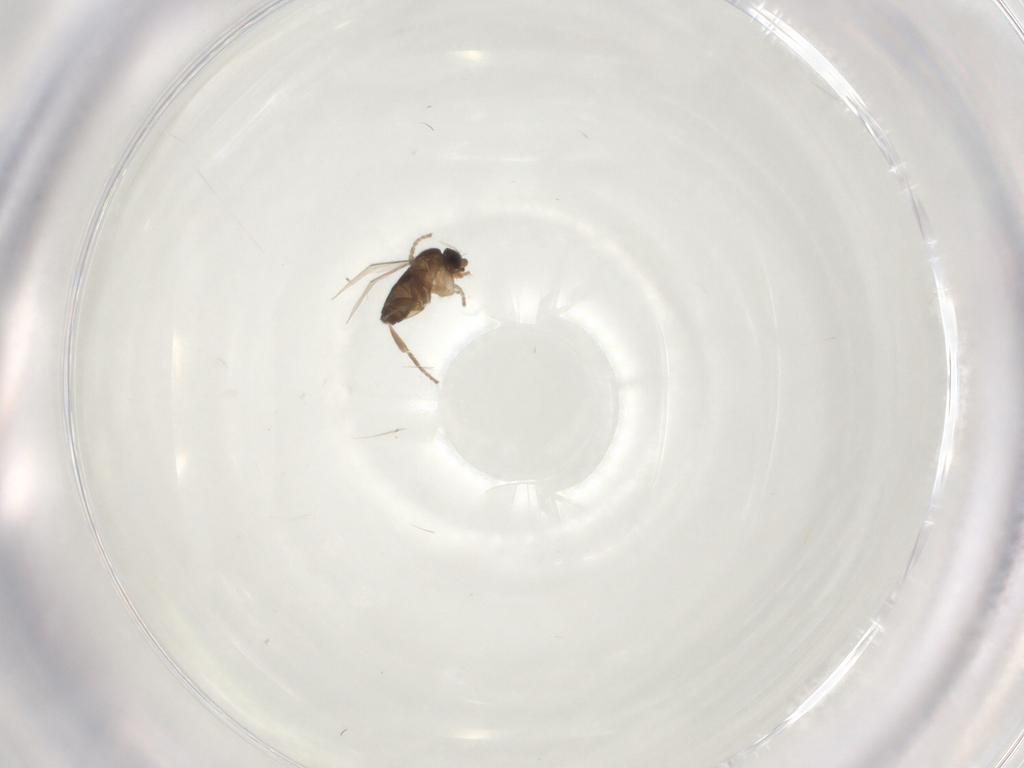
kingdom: Animalia
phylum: Arthropoda
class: Insecta
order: Diptera
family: Phoridae
